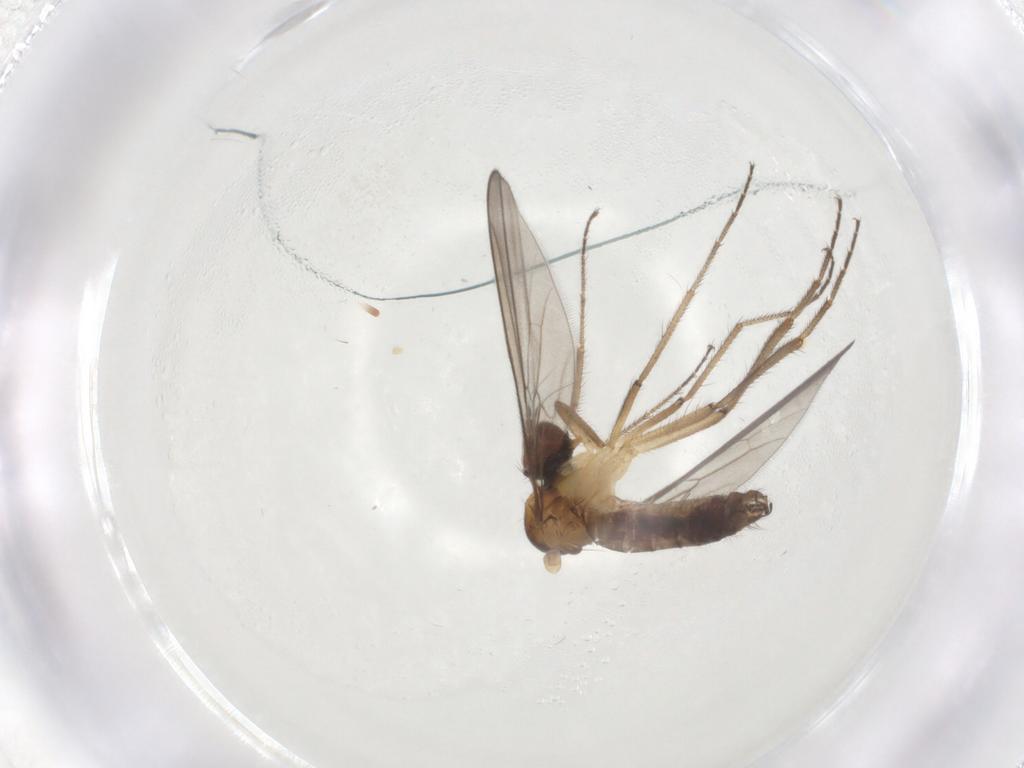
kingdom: Animalia
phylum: Arthropoda
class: Insecta
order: Diptera
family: Hybotidae
